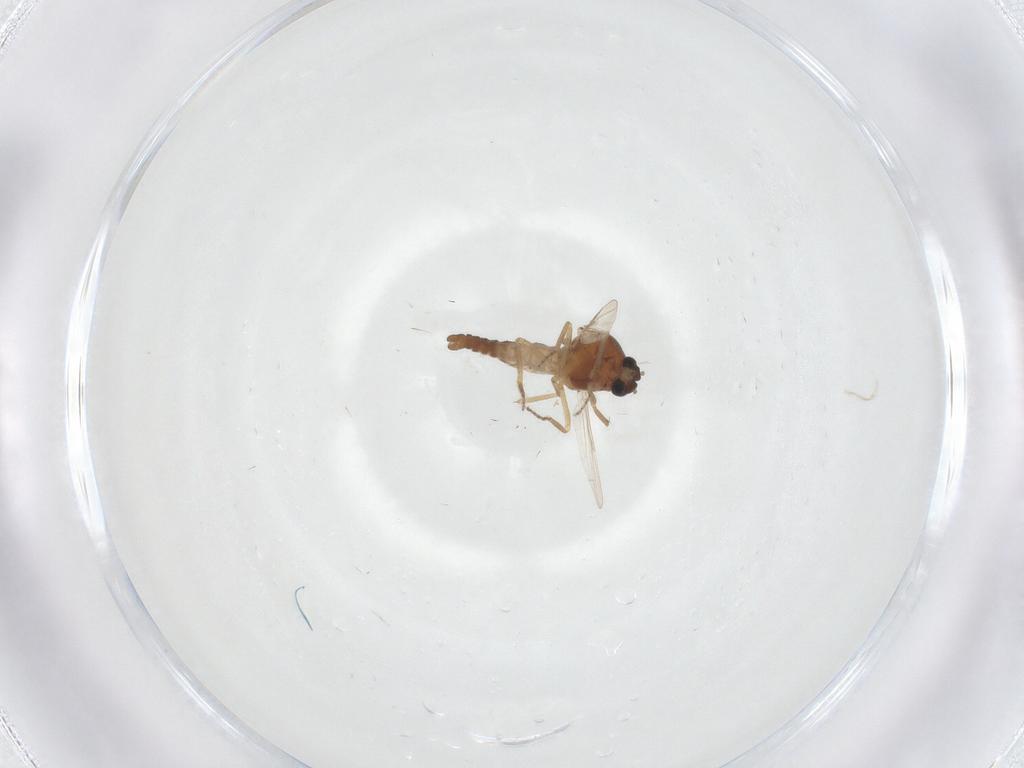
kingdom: Animalia
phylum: Arthropoda
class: Insecta
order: Diptera
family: Ceratopogonidae
